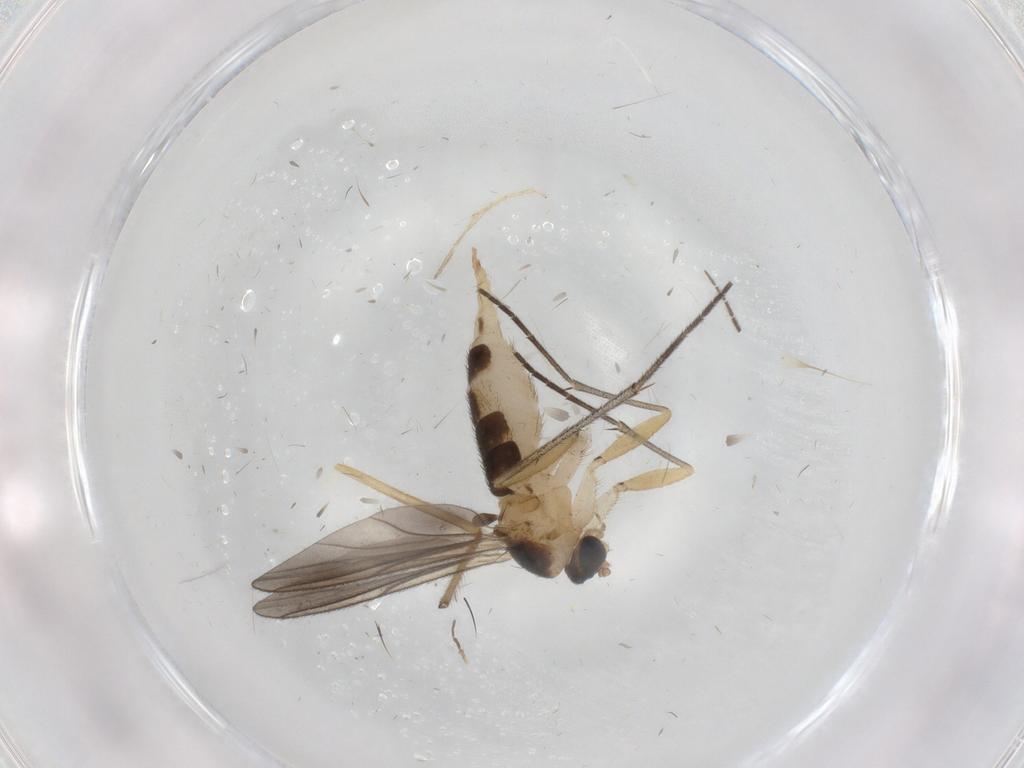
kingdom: Animalia
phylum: Arthropoda
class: Insecta
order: Diptera
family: Sciaridae
